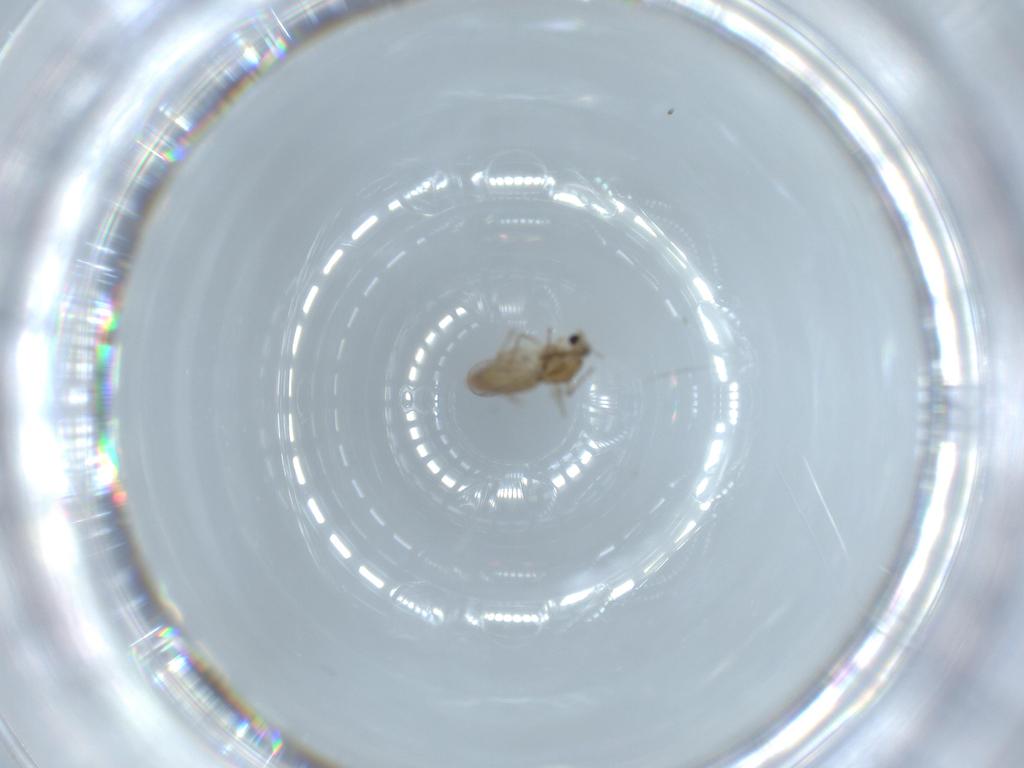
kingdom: Animalia
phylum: Arthropoda
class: Insecta
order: Diptera
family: Chironomidae
